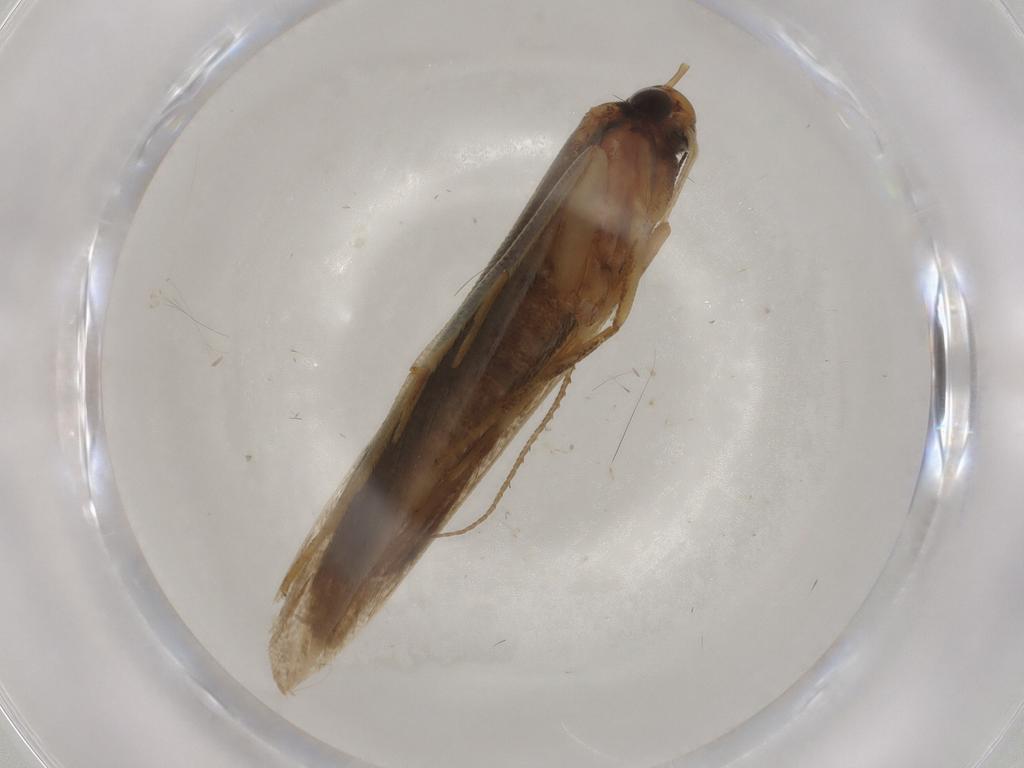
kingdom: Animalia
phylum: Arthropoda
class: Insecta
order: Lepidoptera
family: Gelechiidae
